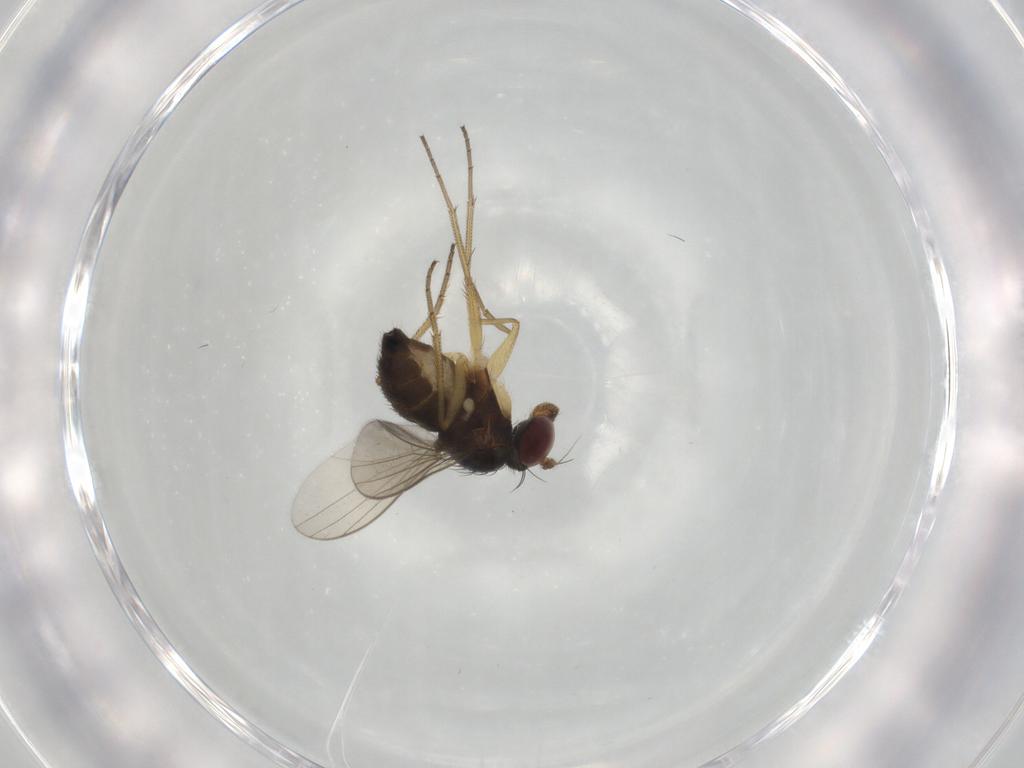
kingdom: Animalia
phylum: Arthropoda
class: Insecta
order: Diptera
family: Dolichopodidae
